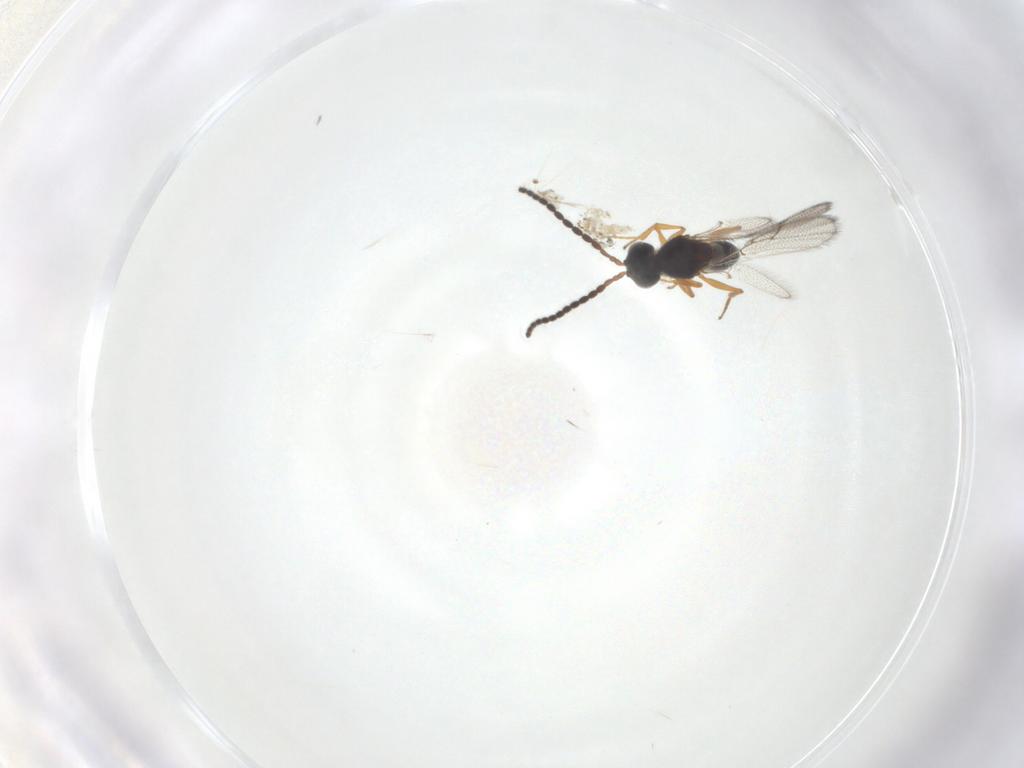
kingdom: Animalia
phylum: Arthropoda
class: Insecta
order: Hymenoptera
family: Figitidae
